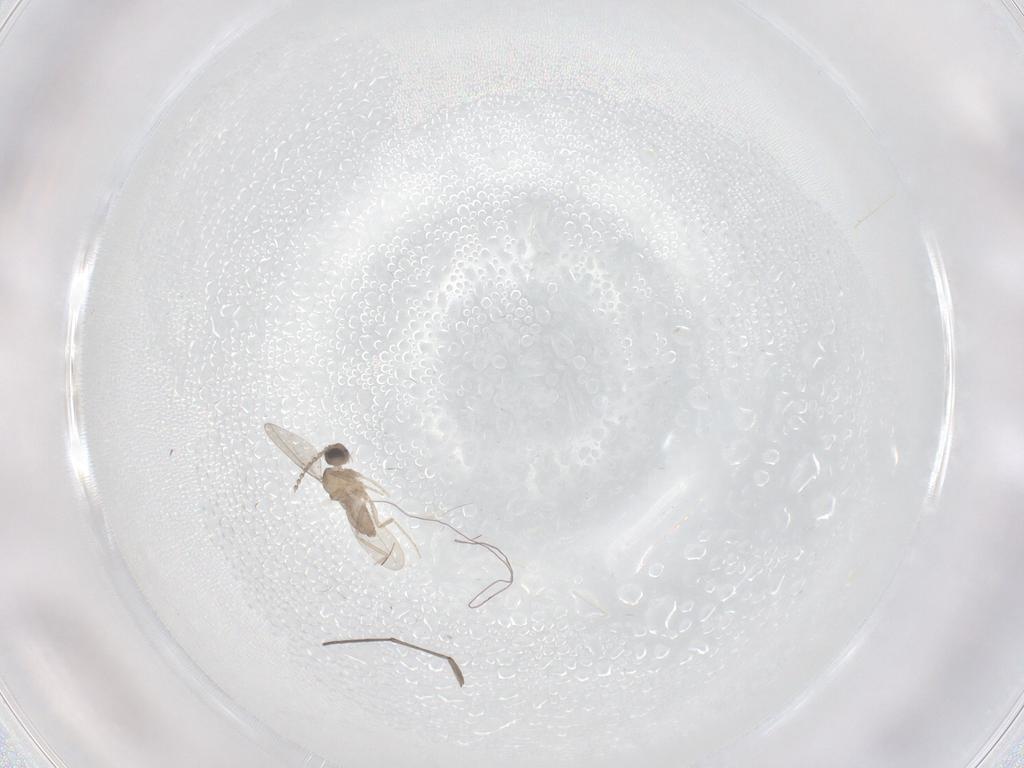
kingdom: Animalia
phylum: Arthropoda
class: Insecta
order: Diptera
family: Cecidomyiidae
